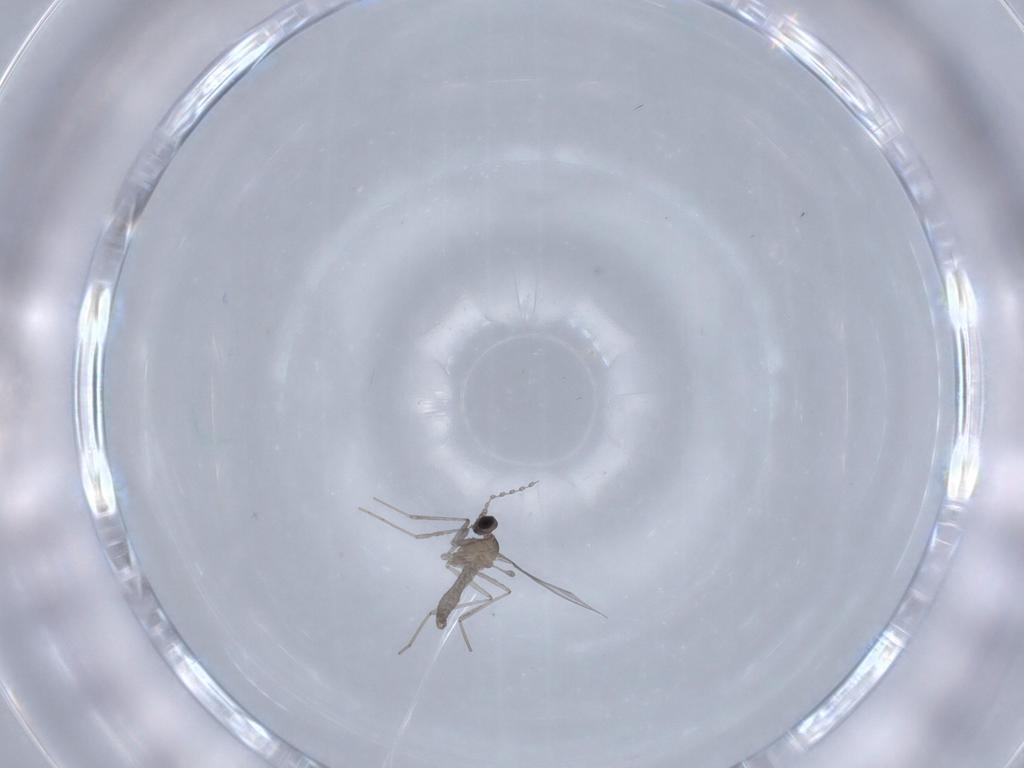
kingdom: Animalia
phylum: Arthropoda
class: Insecta
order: Diptera
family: Cecidomyiidae
